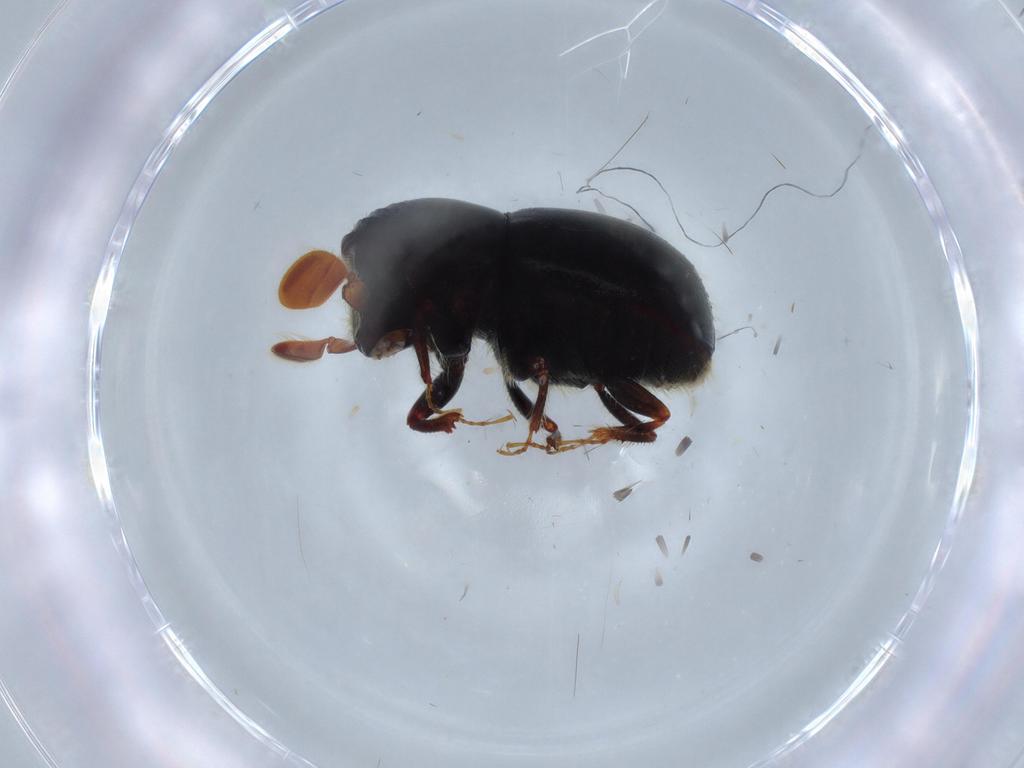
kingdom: Animalia
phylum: Arthropoda
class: Insecta
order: Coleoptera
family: Curculionidae
